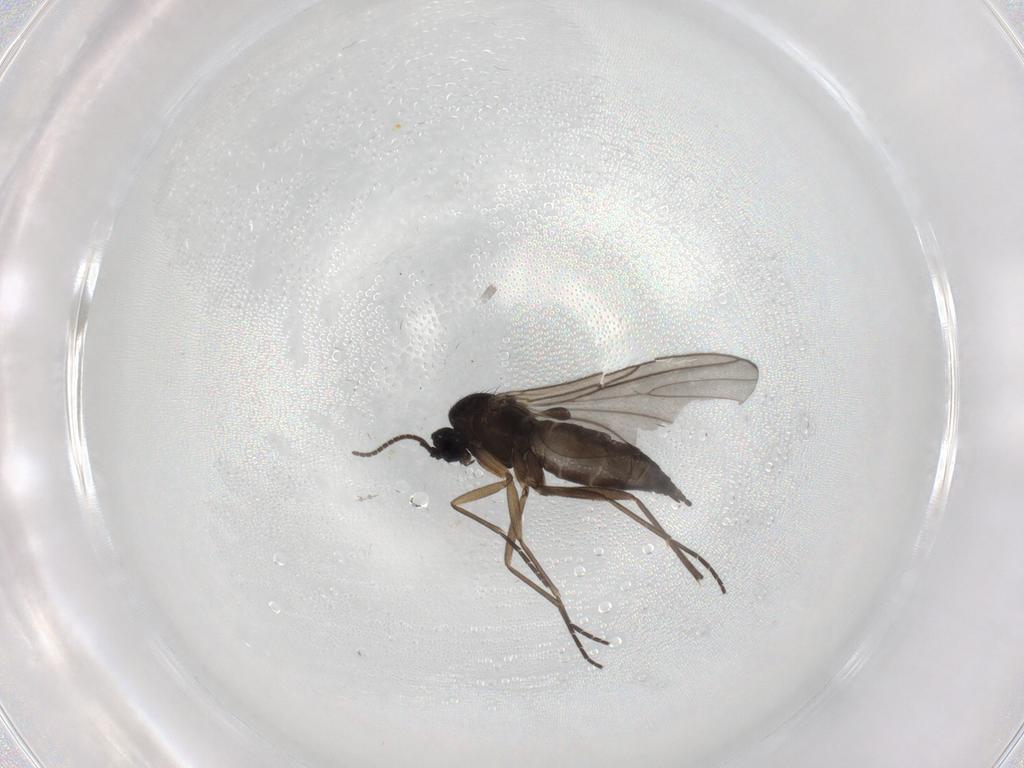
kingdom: Animalia
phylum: Arthropoda
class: Insecta
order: Diptera
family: Sciaridae
